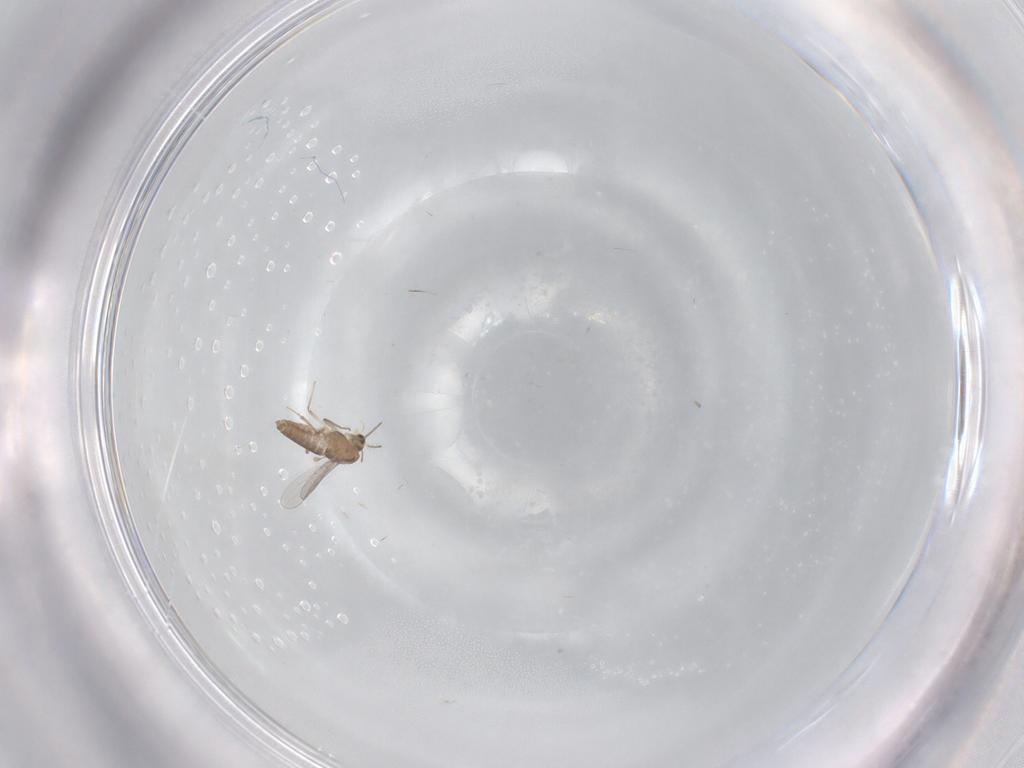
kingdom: Animalia
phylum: Arthropoda
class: Insecta
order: Diptera
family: Chironomidae
